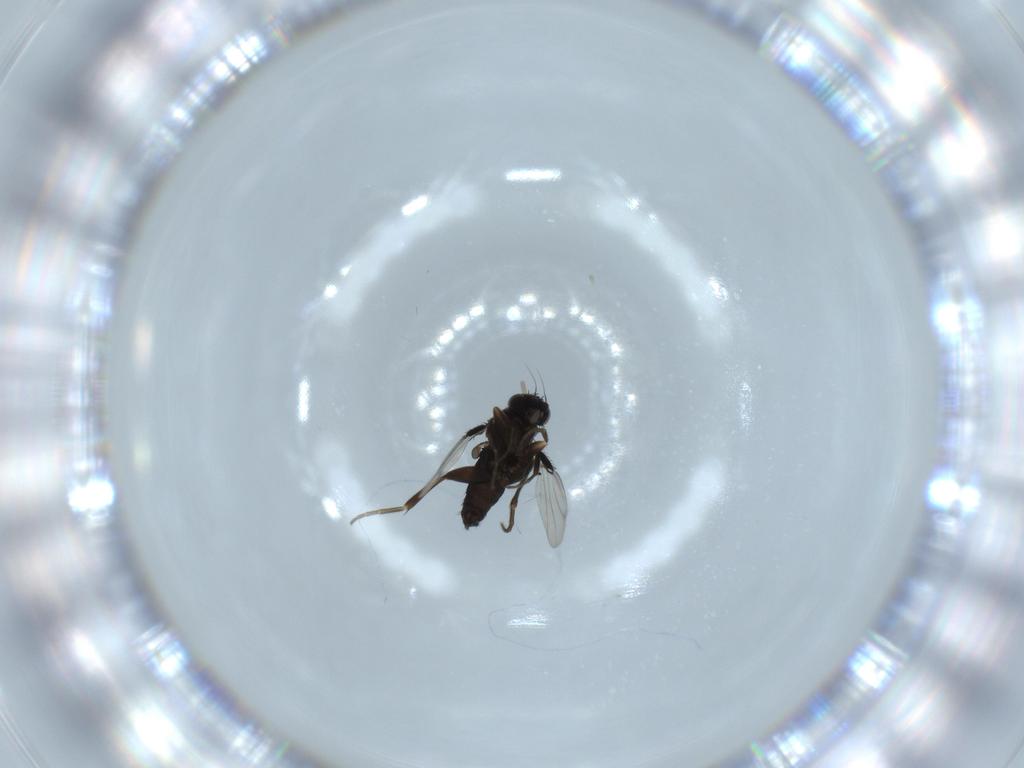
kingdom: Animalia
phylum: Arthropoda
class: Insecta
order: Diptera
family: Phoridae
